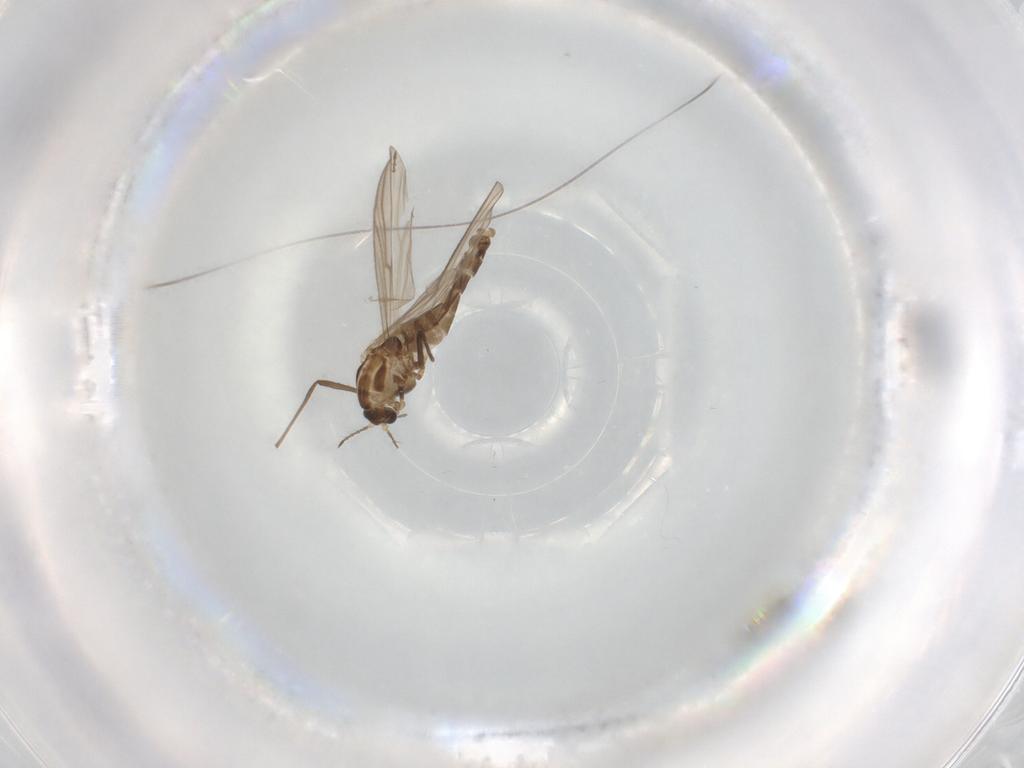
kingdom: Animalia
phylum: Arthropoda
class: Insecta
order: Diptera
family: Chironomidae
